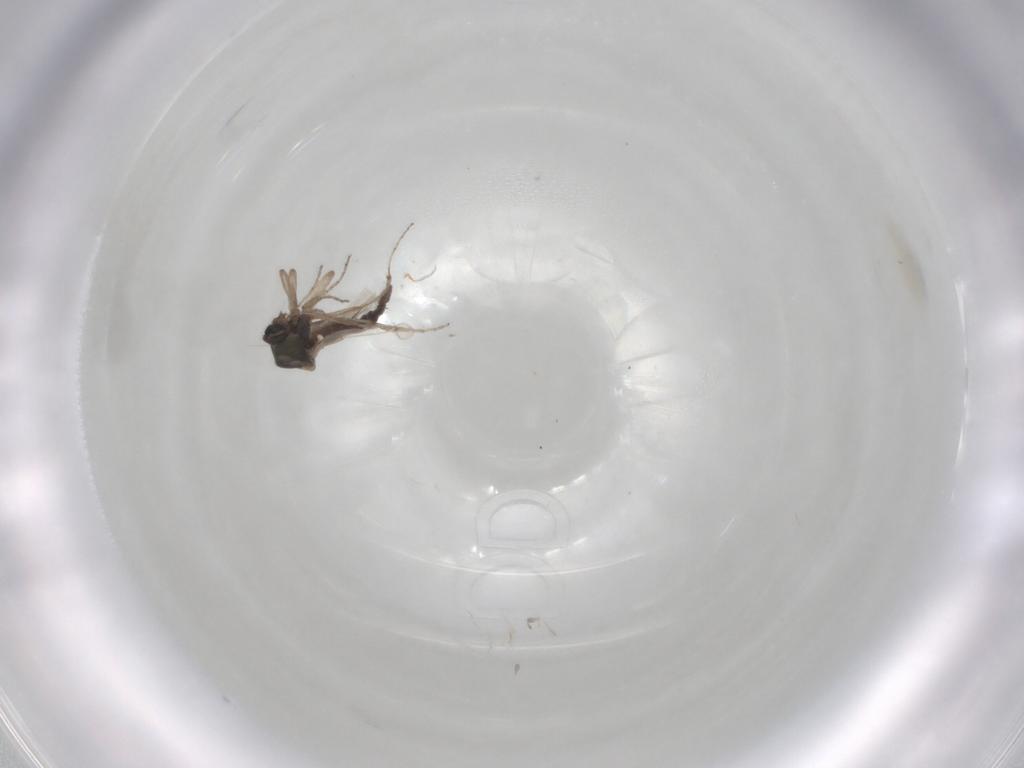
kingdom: Animalia
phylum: Arthropoda
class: Insecta
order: Diptera
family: Ceratopogonidae
